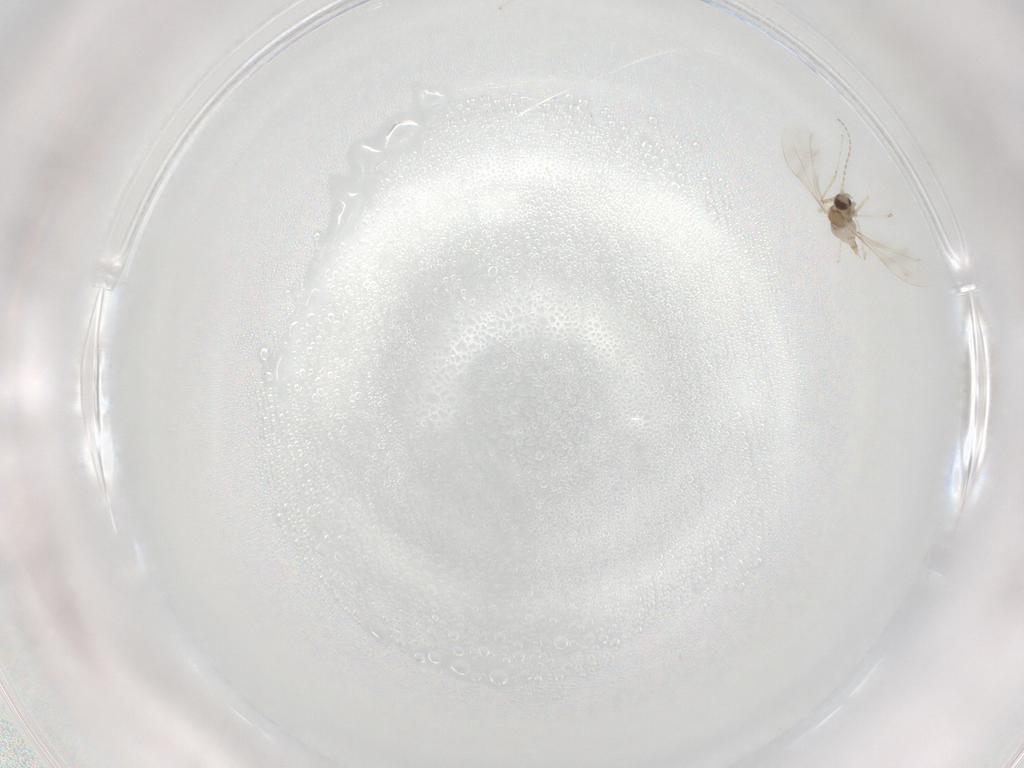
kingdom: Animalia
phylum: Arthropoda
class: Insecta
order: Diptera
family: Cecidomyiidae
